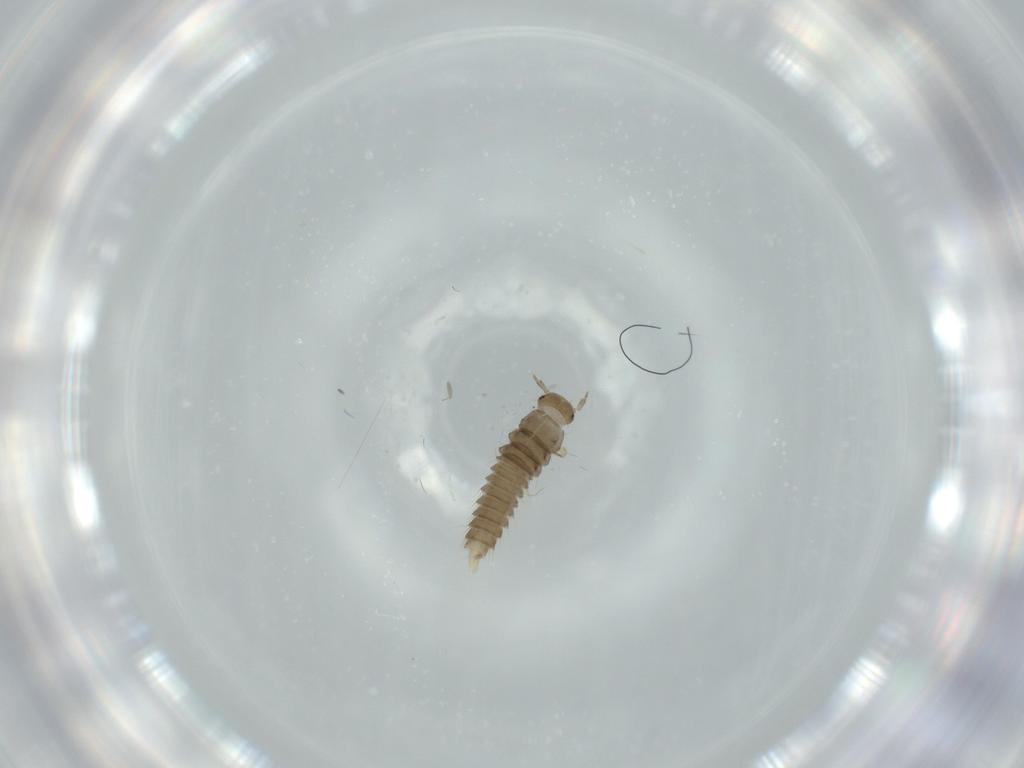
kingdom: Animalia
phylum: Arthropoda
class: Insecta
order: Coleoptera
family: Staphylinidae
